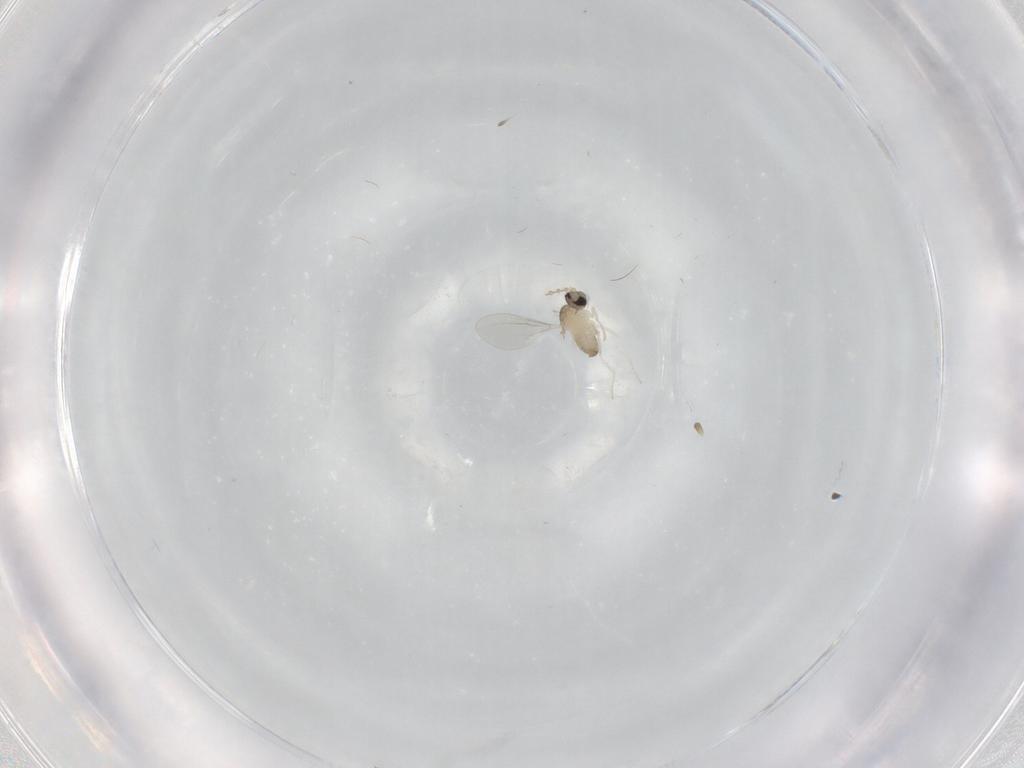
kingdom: Animalia
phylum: Arthropoda
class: Insecta
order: Diptera
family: Cecidomyiidae
